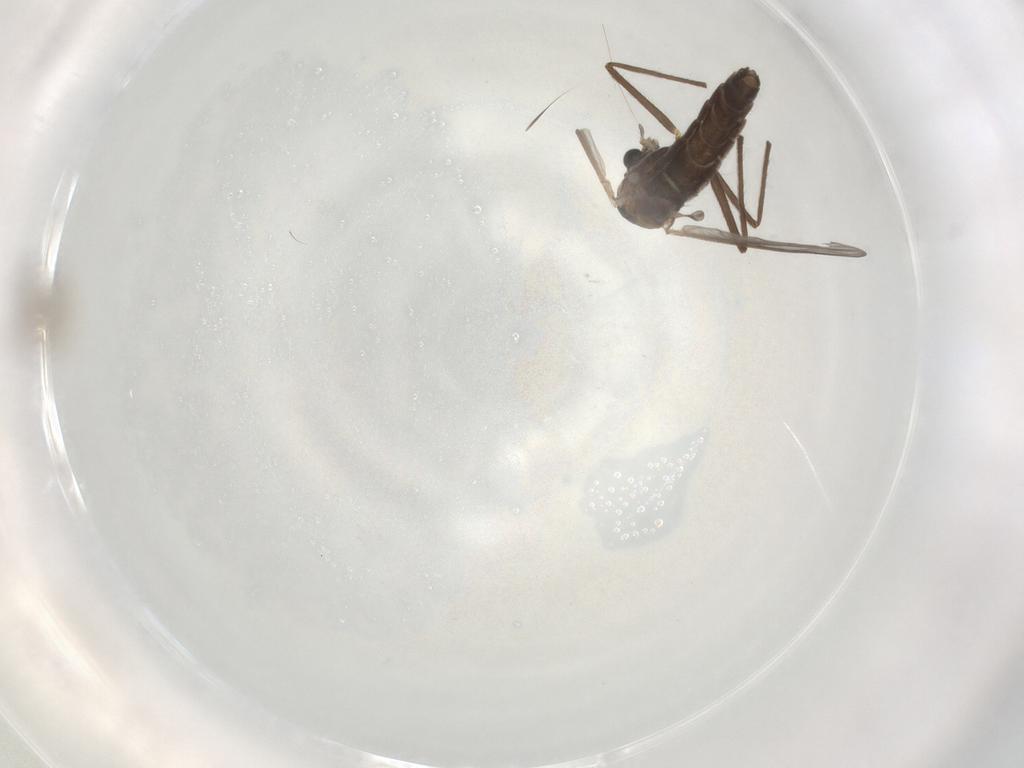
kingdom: Animalia
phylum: Arthropoda
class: Insecta
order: Diptera
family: Chironomidae
